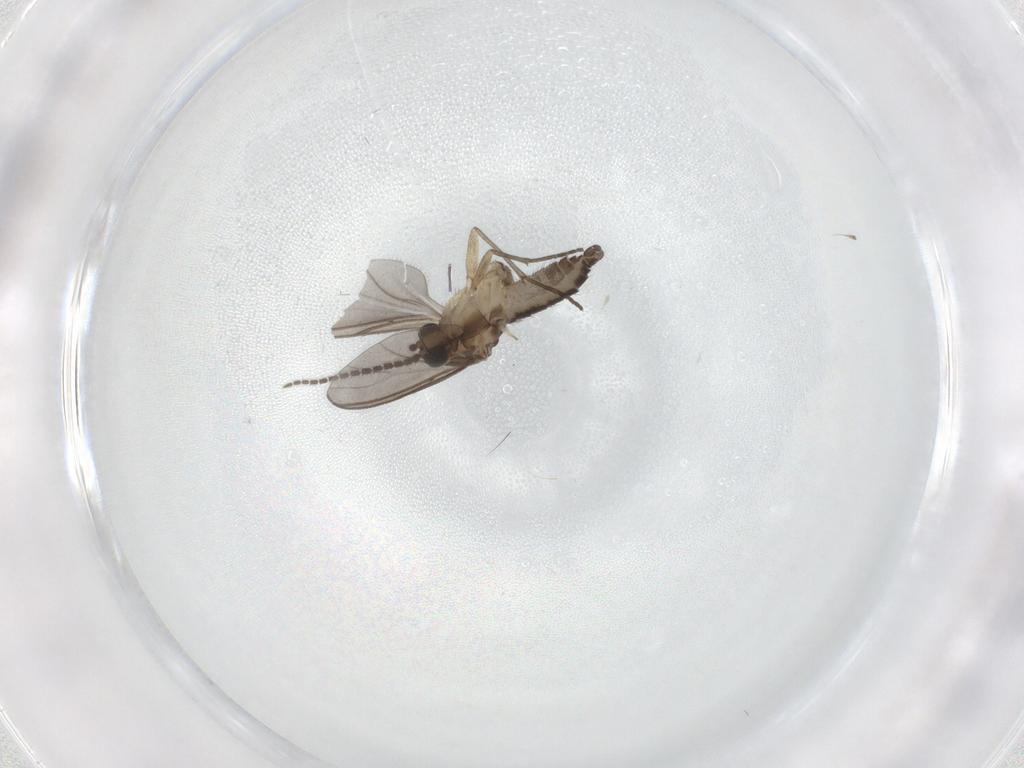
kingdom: Animalia
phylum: Arthropoda
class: Insecta
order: Diptera
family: Sciaridae
